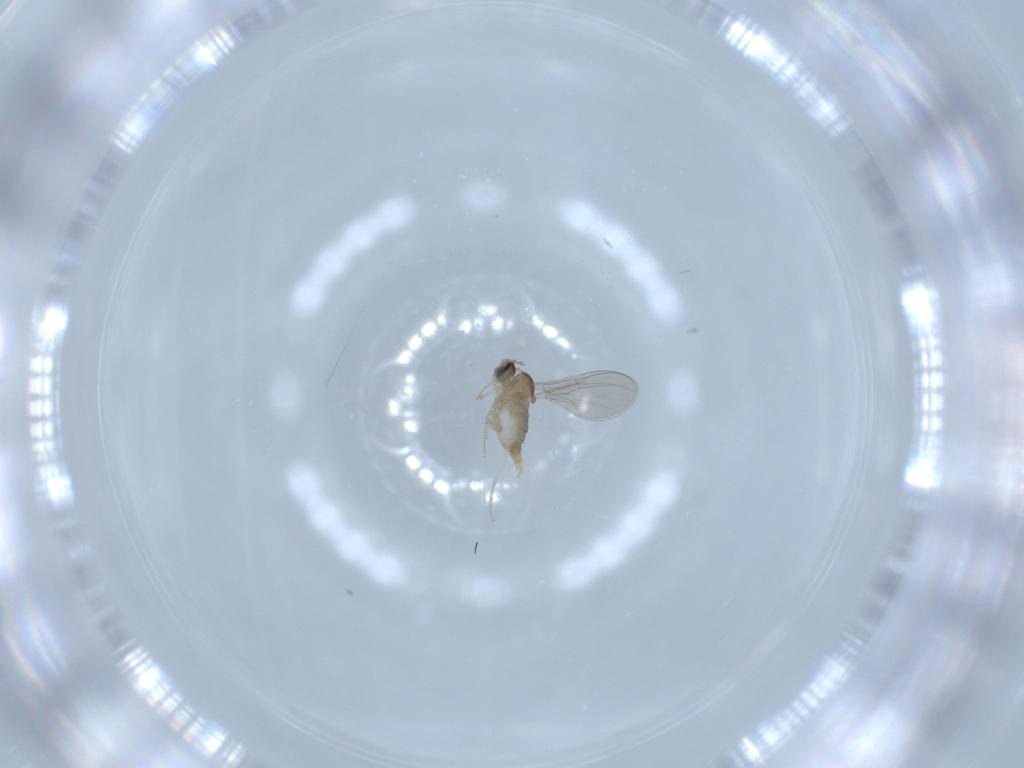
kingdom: Animalia
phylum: Arthropoda
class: Insecta
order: Diptera
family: Cecidomyiidae
